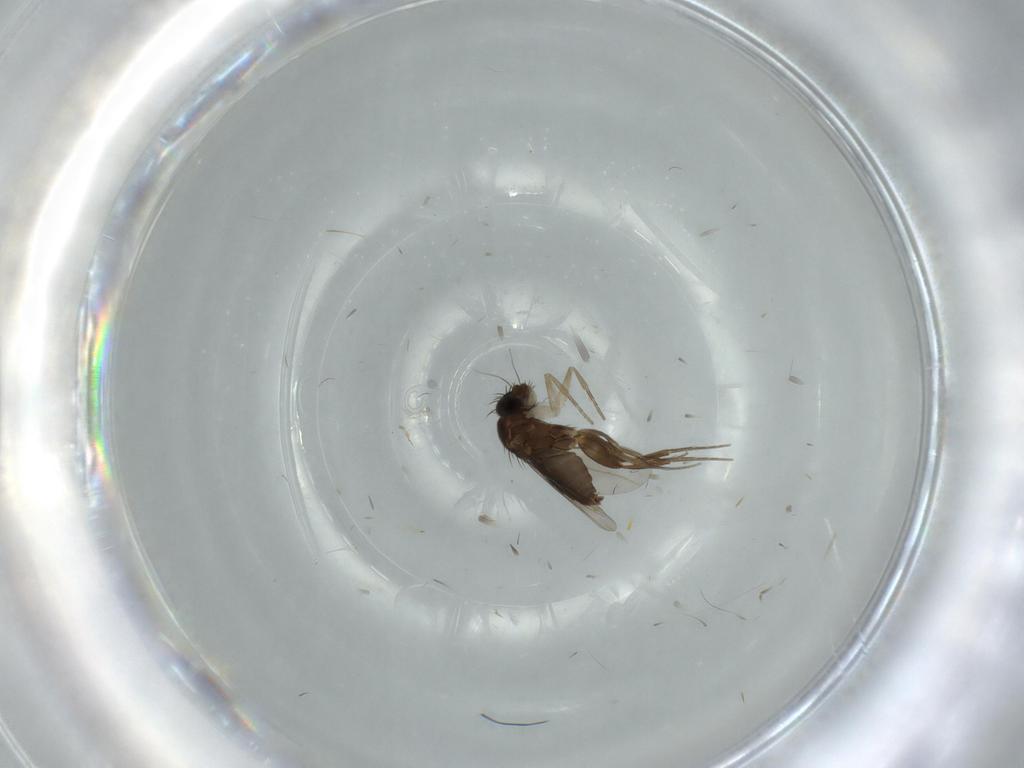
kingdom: Animalia
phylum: Arthropoda
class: Insecta
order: Diptera
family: Phoridae
